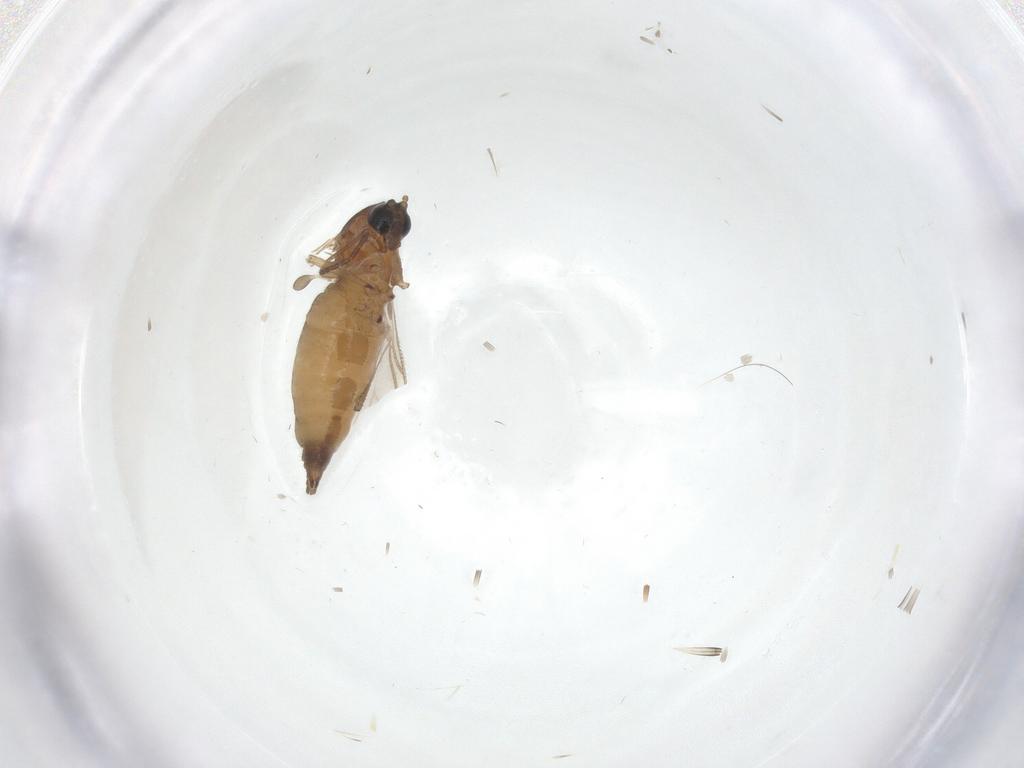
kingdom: Animalia
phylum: Arthropoda
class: Insecta
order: Diptera
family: Sciaridae
